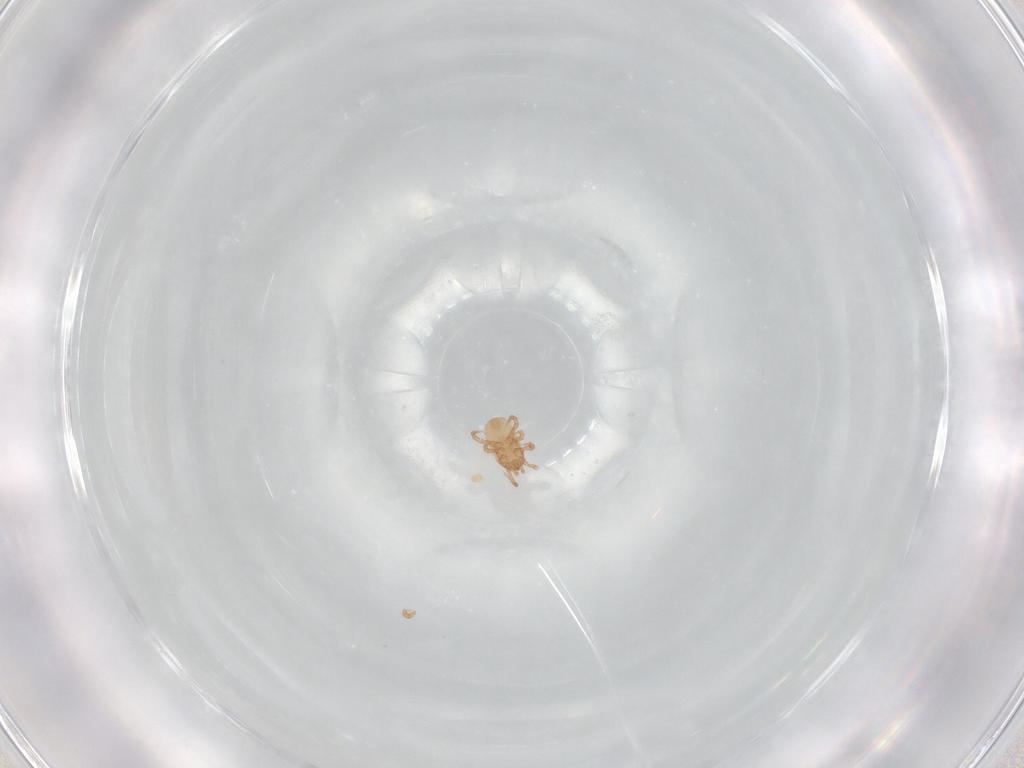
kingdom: Animalia
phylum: Arthropoda
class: Arachnida
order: Mesostigmata
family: Ascidae
